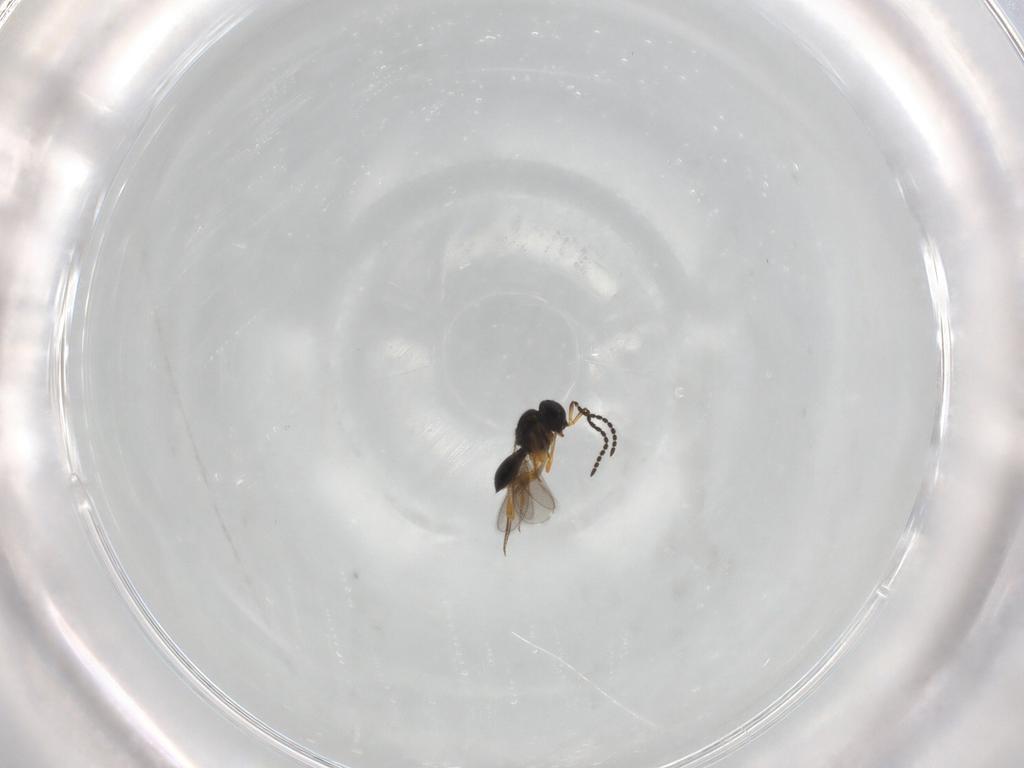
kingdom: Animalia
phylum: Arthropoda
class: Insecta
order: Hymenoptera
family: Scelionidae
